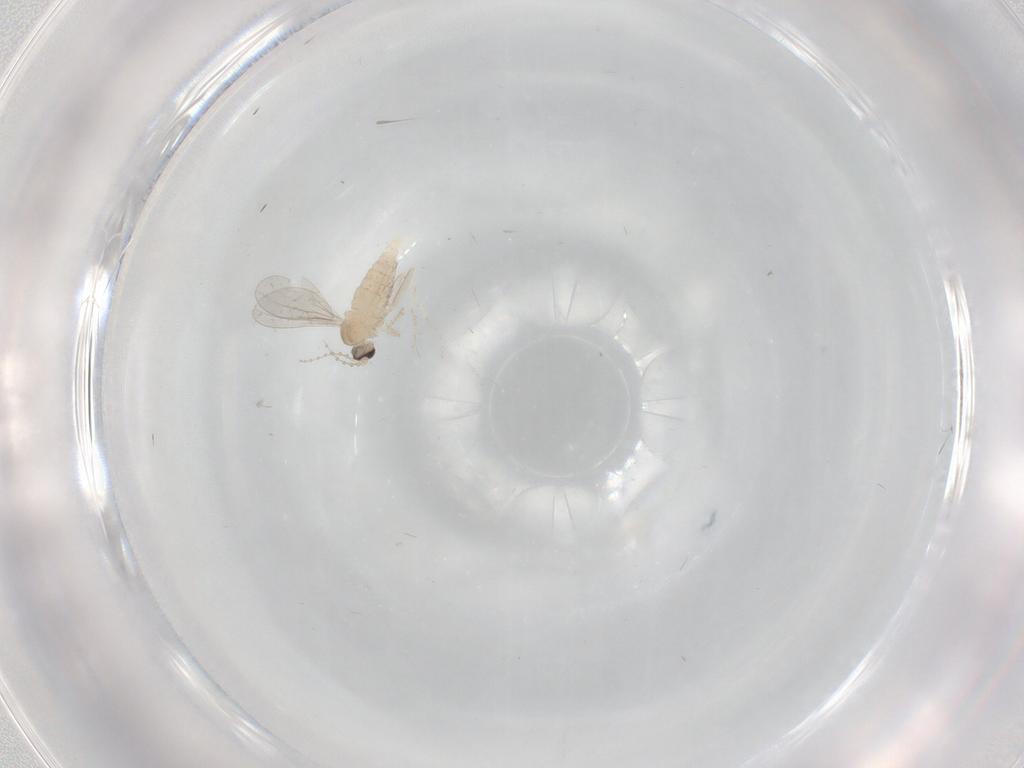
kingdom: Animalia
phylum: Arthropoda
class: Insecta
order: Diptera
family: Cecidomyiidae
